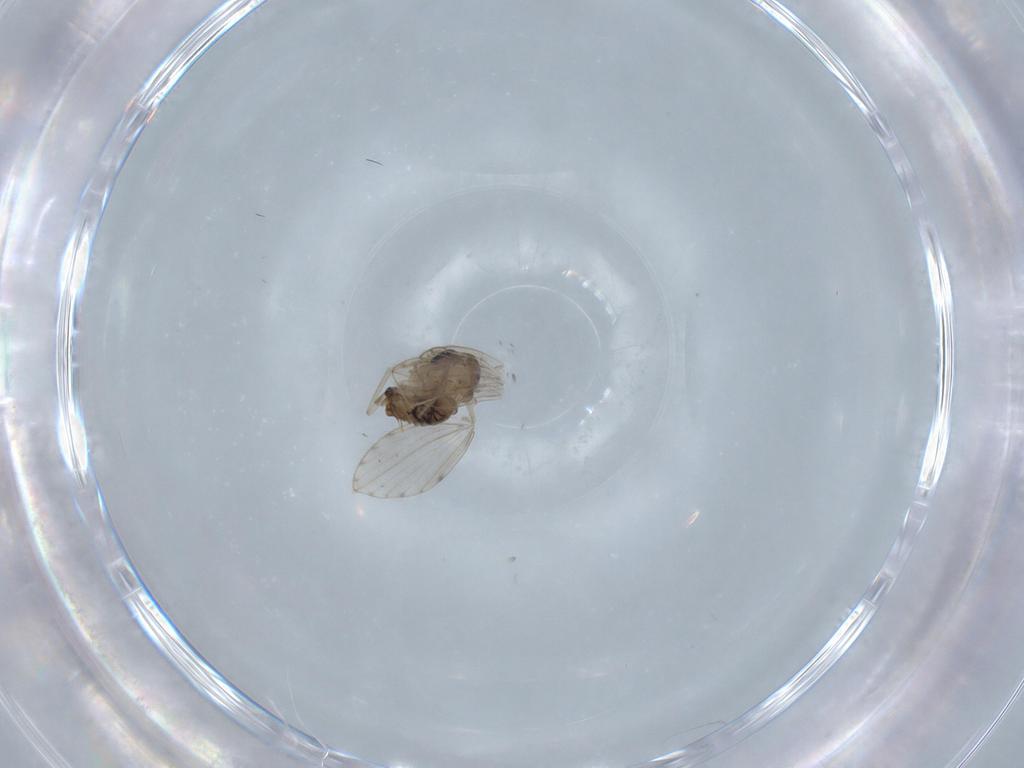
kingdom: Animalia
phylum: Arthropoda
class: Insecta
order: Diptera
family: Psychodidae
